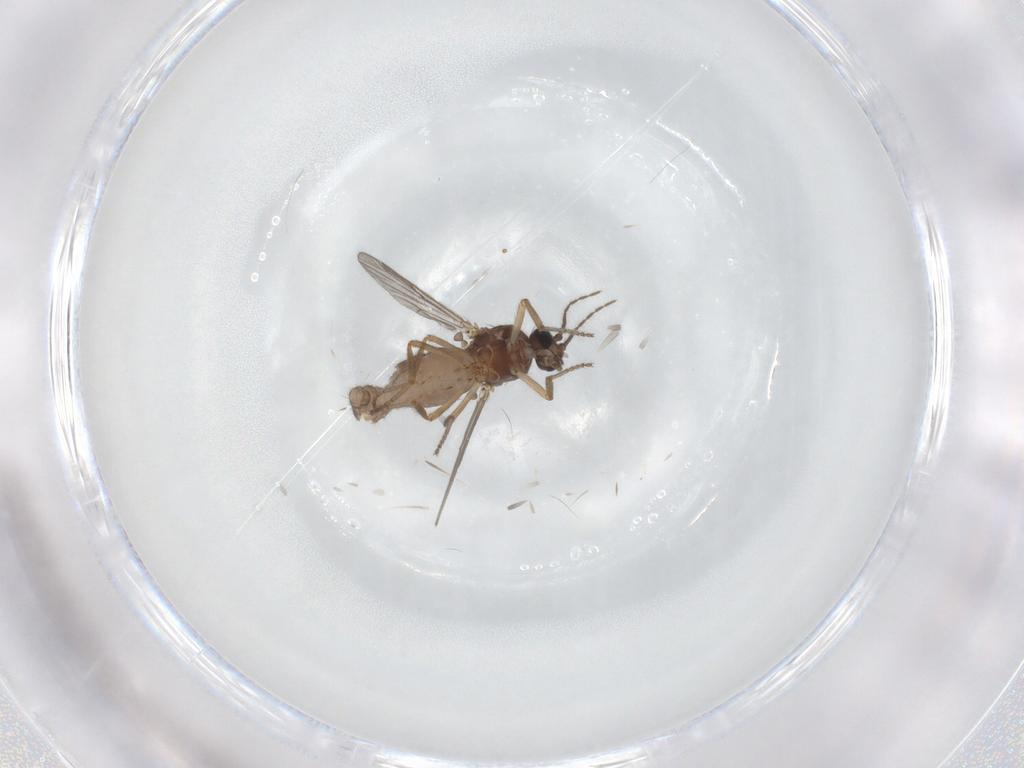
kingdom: Animalia
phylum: Arthropoda
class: Insecta
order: Diptera
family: Ceratopogonidae
